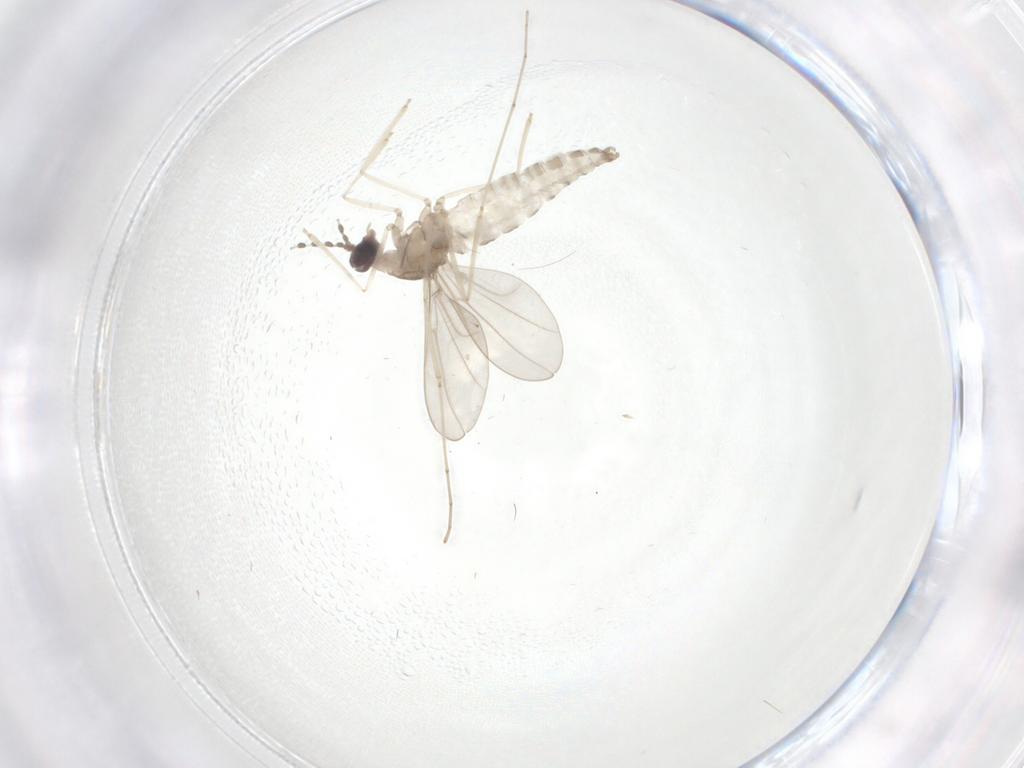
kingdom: Animalia
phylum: Arthropoda
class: Insecta
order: Diptera
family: Cecidomyiidae
